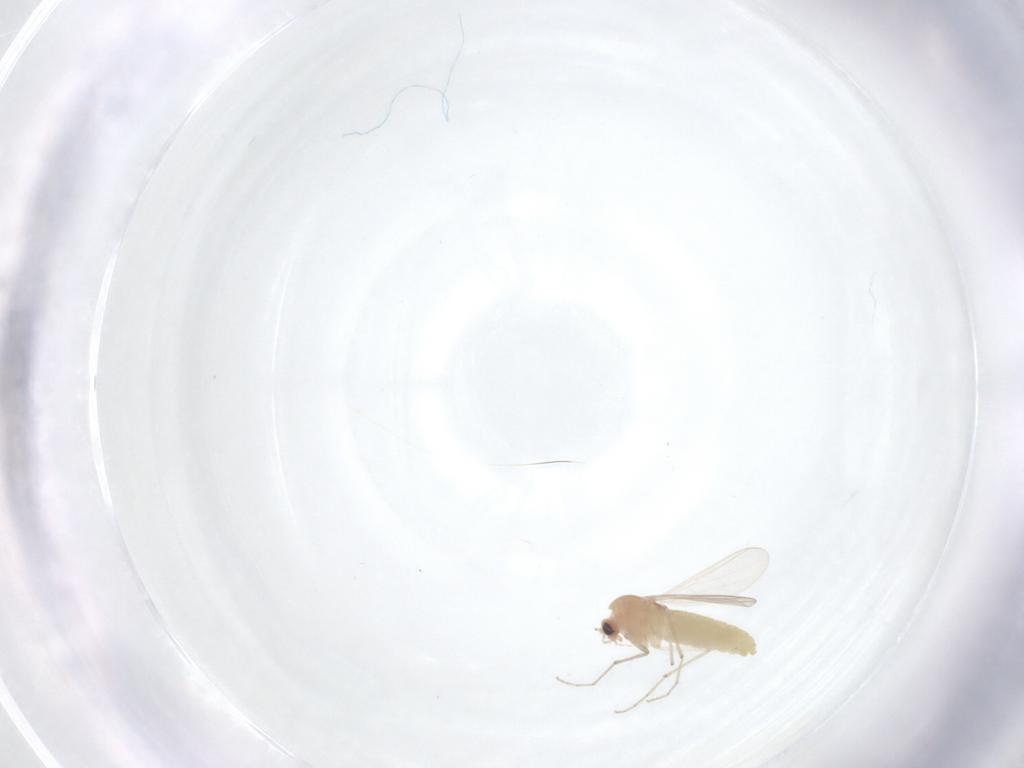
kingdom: Animalia
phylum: Arthropoda
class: Insecta
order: Diptera
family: Chironomidae
